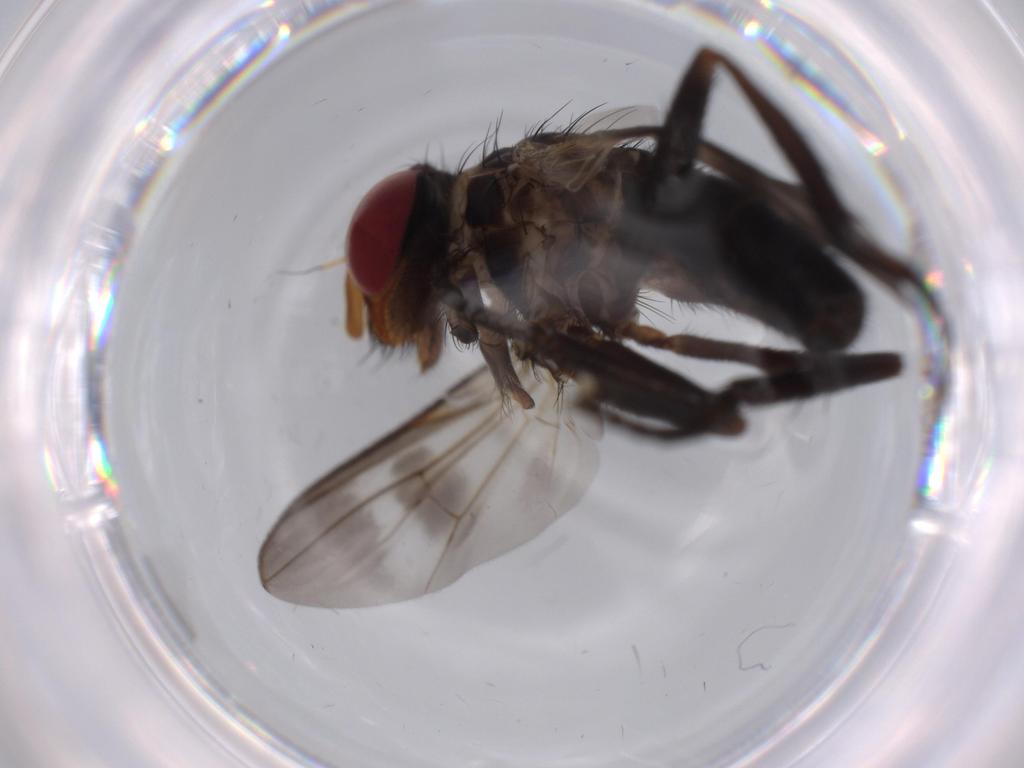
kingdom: Animalia
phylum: Arthropoda
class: Insecta
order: Diptera
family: Calliphoridae
